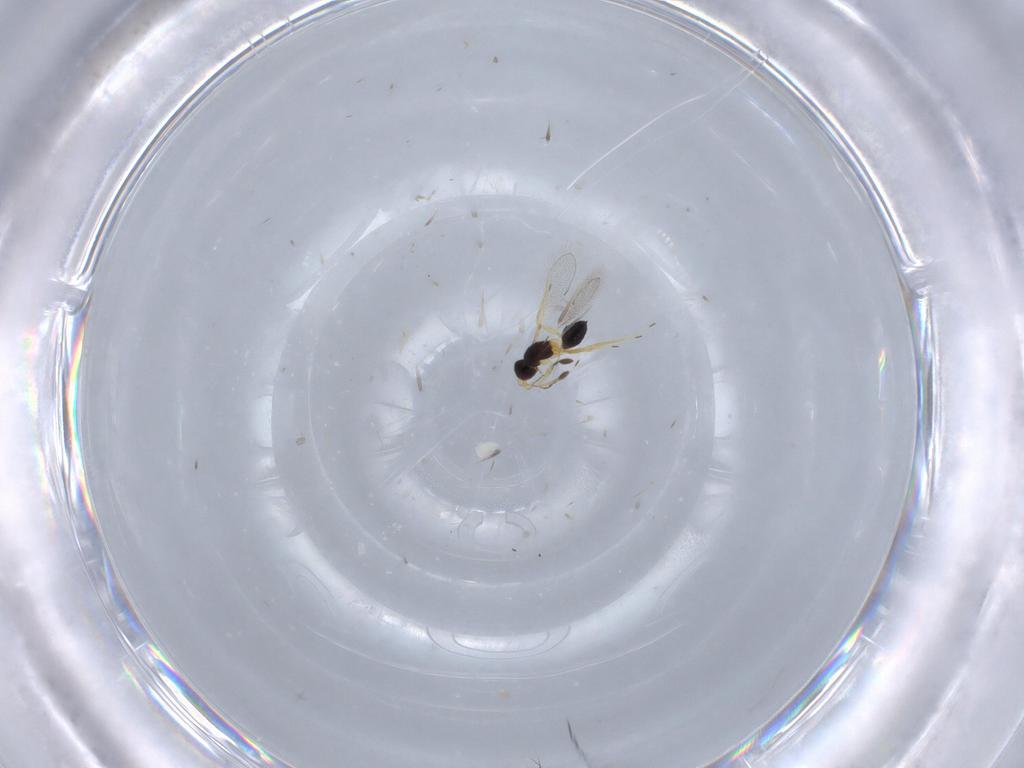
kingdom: Animalia
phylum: Arthropoda
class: Insecta
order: Hymenoptera
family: Mymaridae
